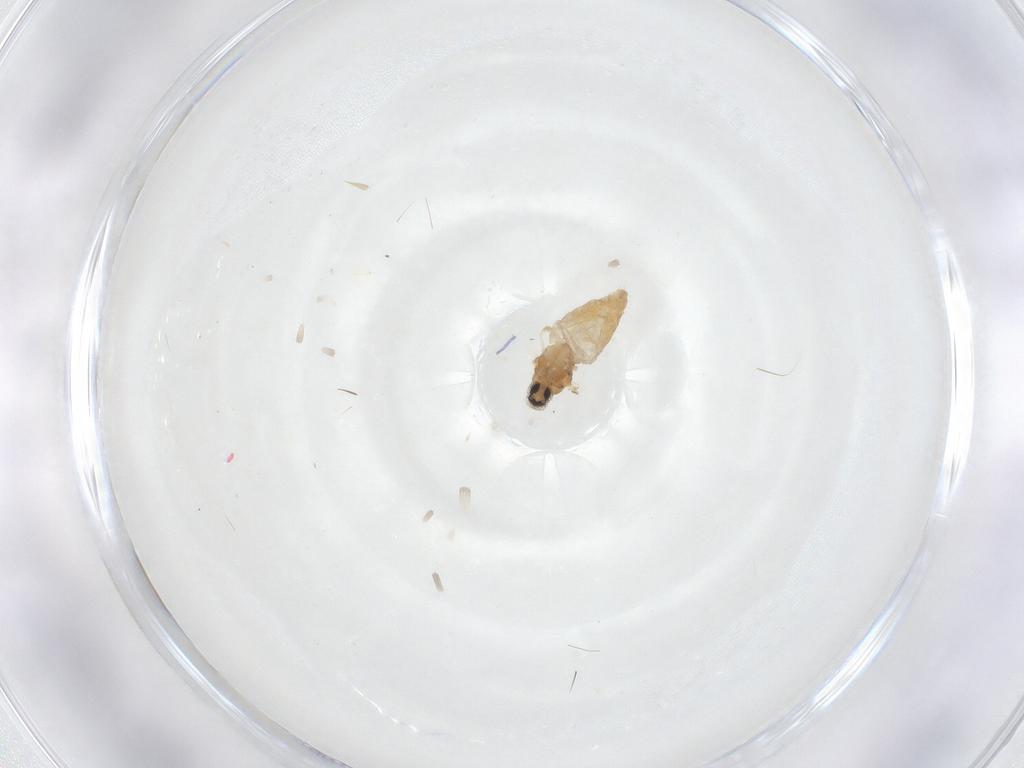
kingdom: Animalia
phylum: Arthropoda
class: Insecta
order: Diptera
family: Cecidomyiidae
